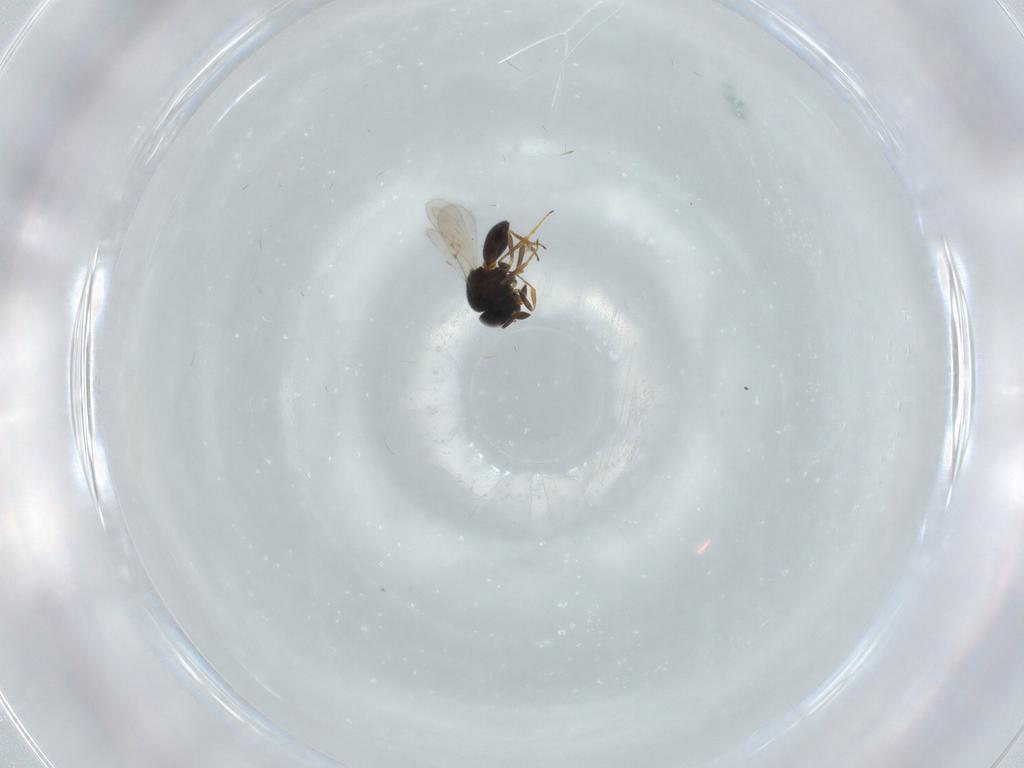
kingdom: Animalia
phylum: Arthropoda
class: Insecta
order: Hymenoptera
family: Scelionidae
